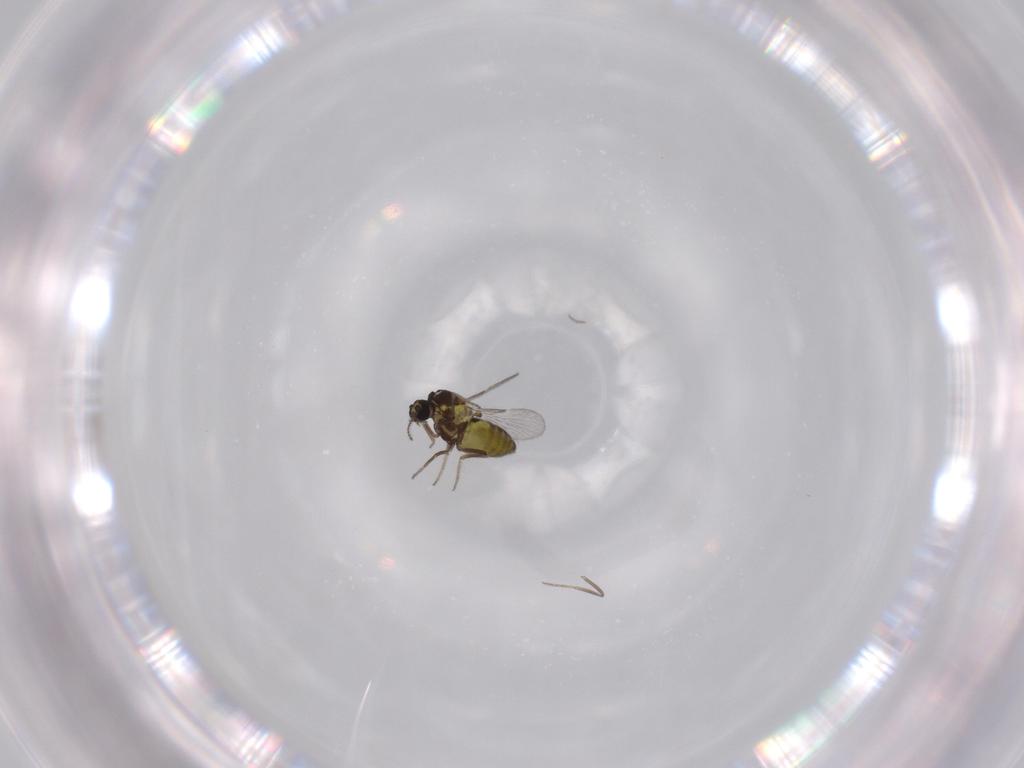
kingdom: Animalia
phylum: Arthropoda
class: Insecta
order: Diptera
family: Ceratopogonidae
